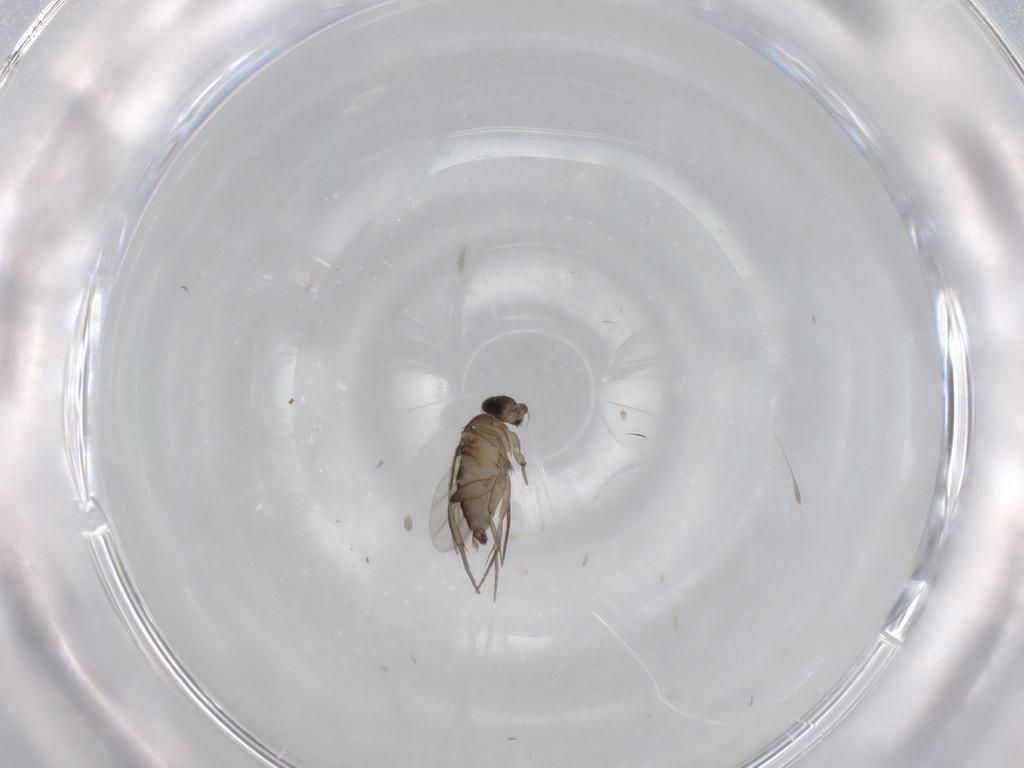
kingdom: Animalia
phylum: Arthropoda
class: Insecta
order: Diptera
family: Phoridae
